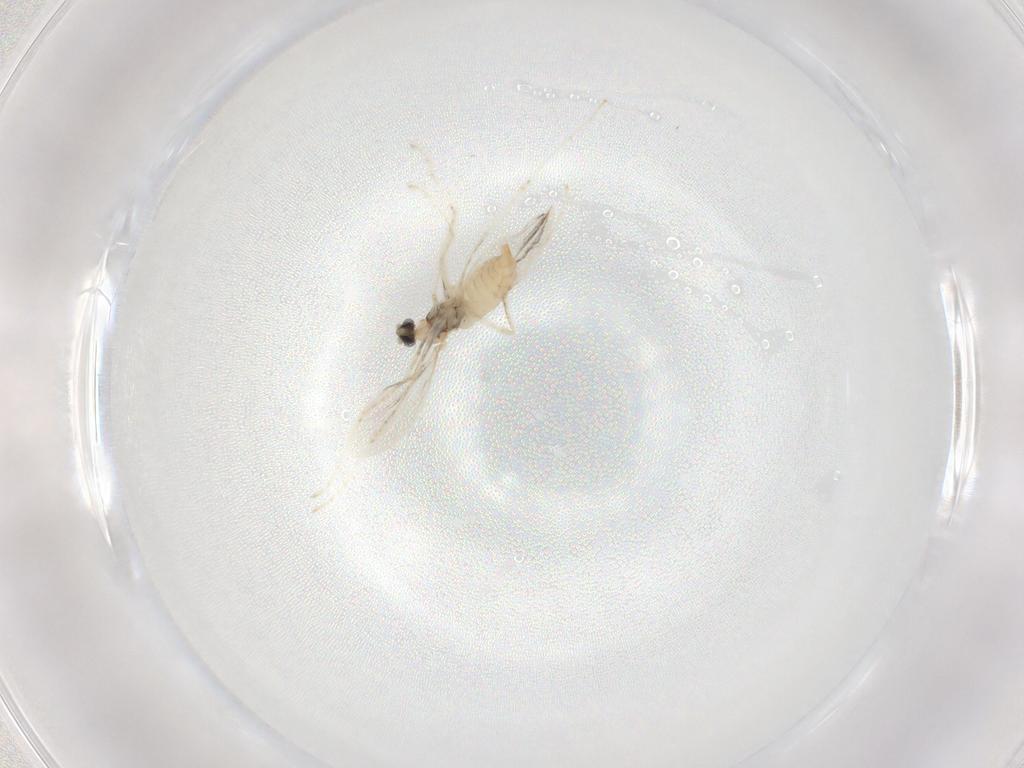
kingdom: Animalia
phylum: Arthropoda
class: Insecta
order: Diptera
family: Cecidomyiidae
